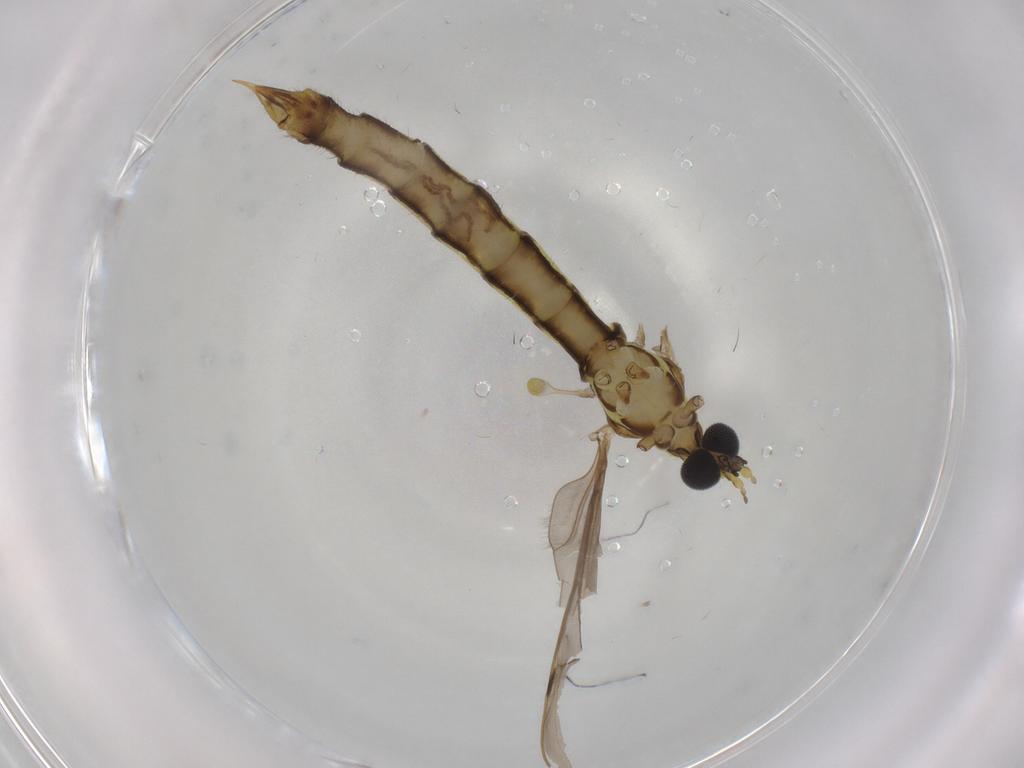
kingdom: Animalia
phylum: Arthropoda
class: Insecta
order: Diptera
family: Limoniidae
